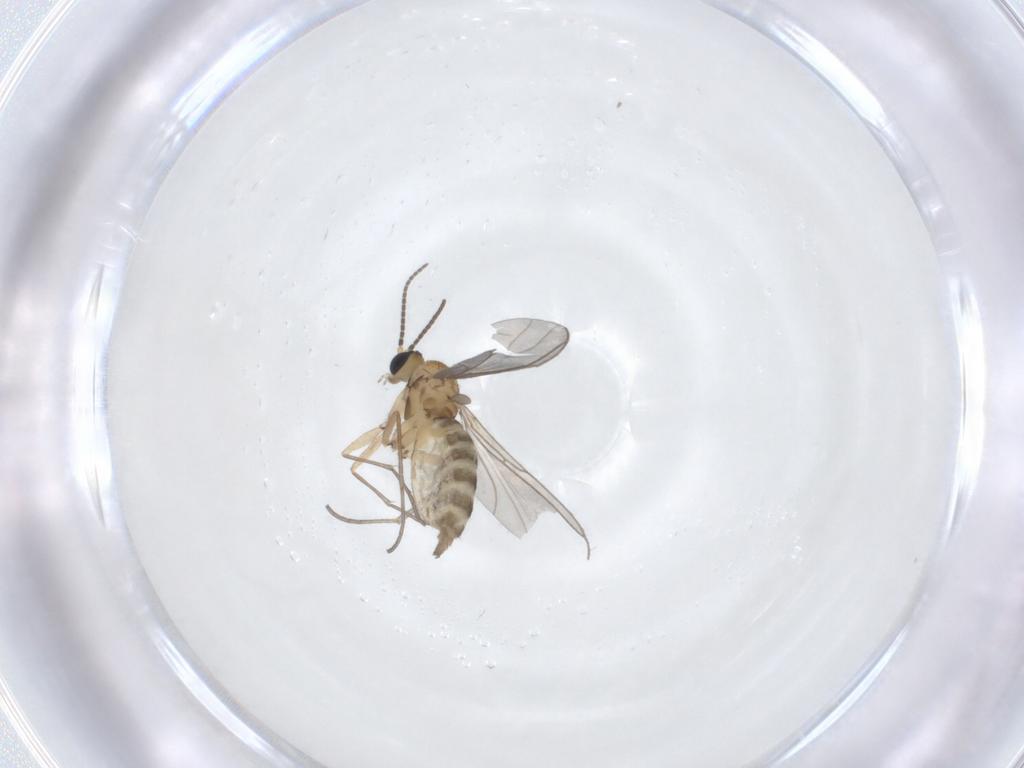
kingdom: Animalia
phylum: Arthropoda
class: Insecta
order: Diptera
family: Sciaridae
